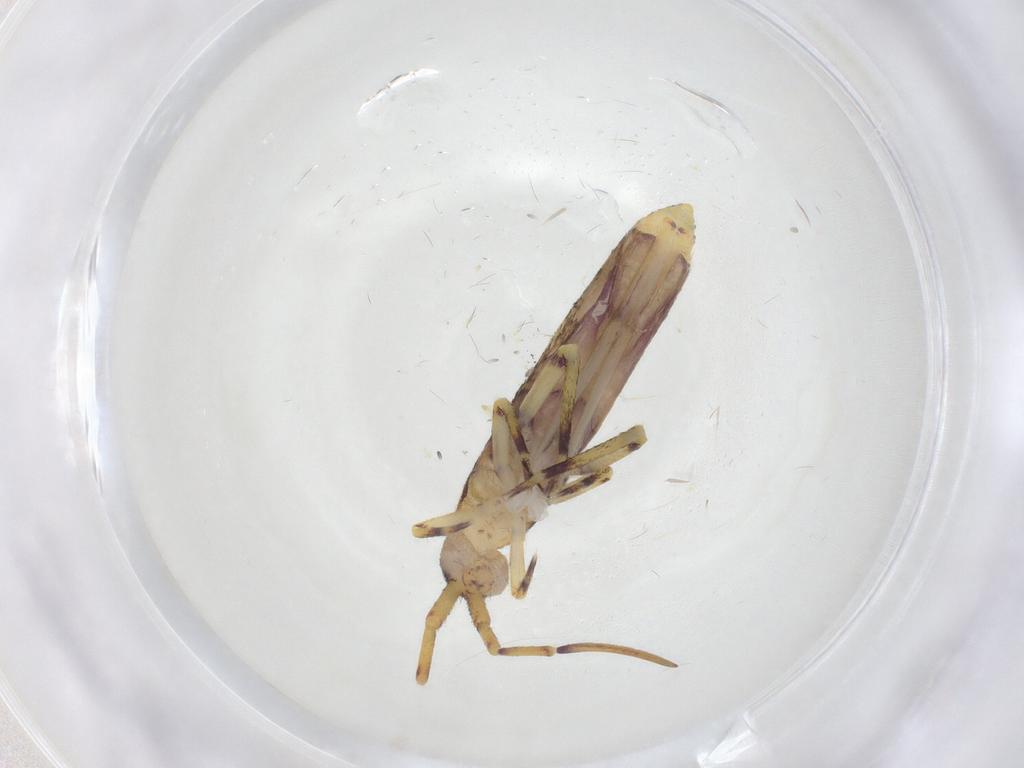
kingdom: Animalia
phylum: Arthropoda
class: Collembola
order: Entomobryomorpha
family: Entomobryidae
